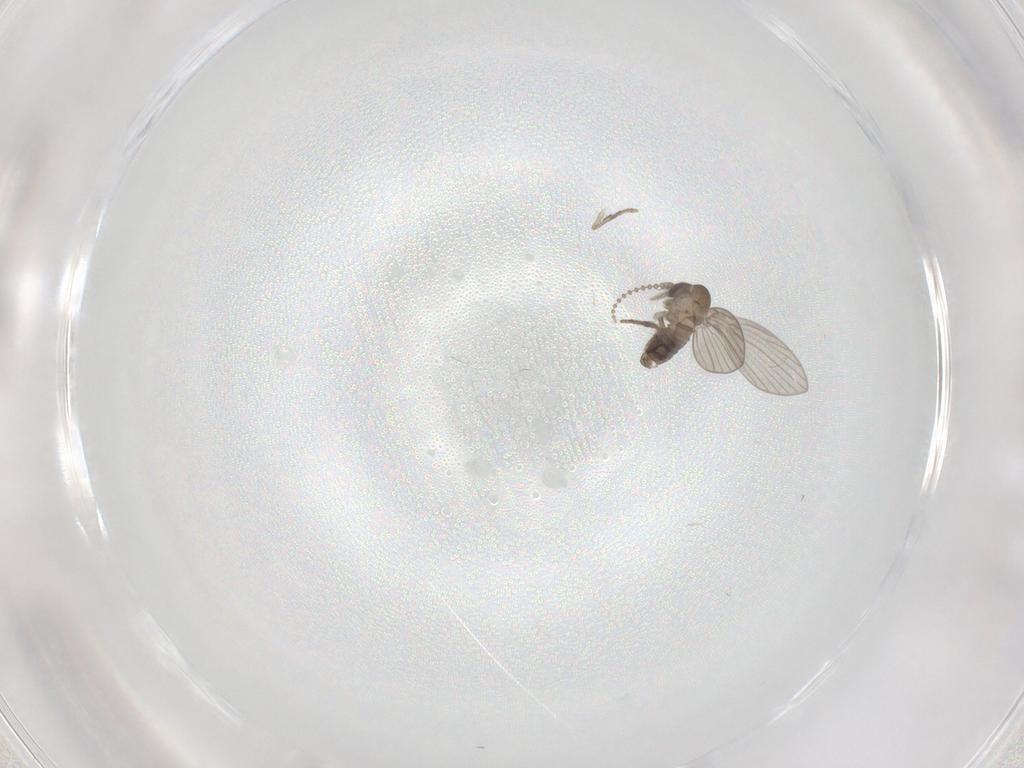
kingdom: Animalia
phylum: Arthropoda
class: Insecta
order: Diptera
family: Psychodidae
